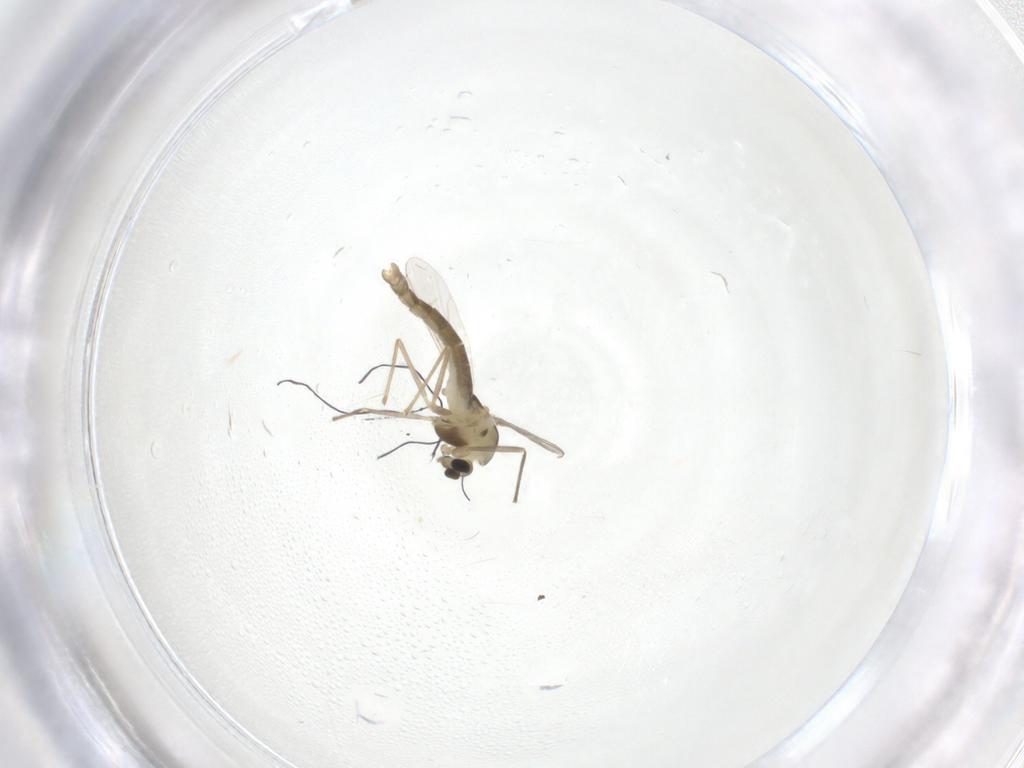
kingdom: Animalia
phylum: Arthropoda
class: Insecta
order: Diptera
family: Chironomidae
